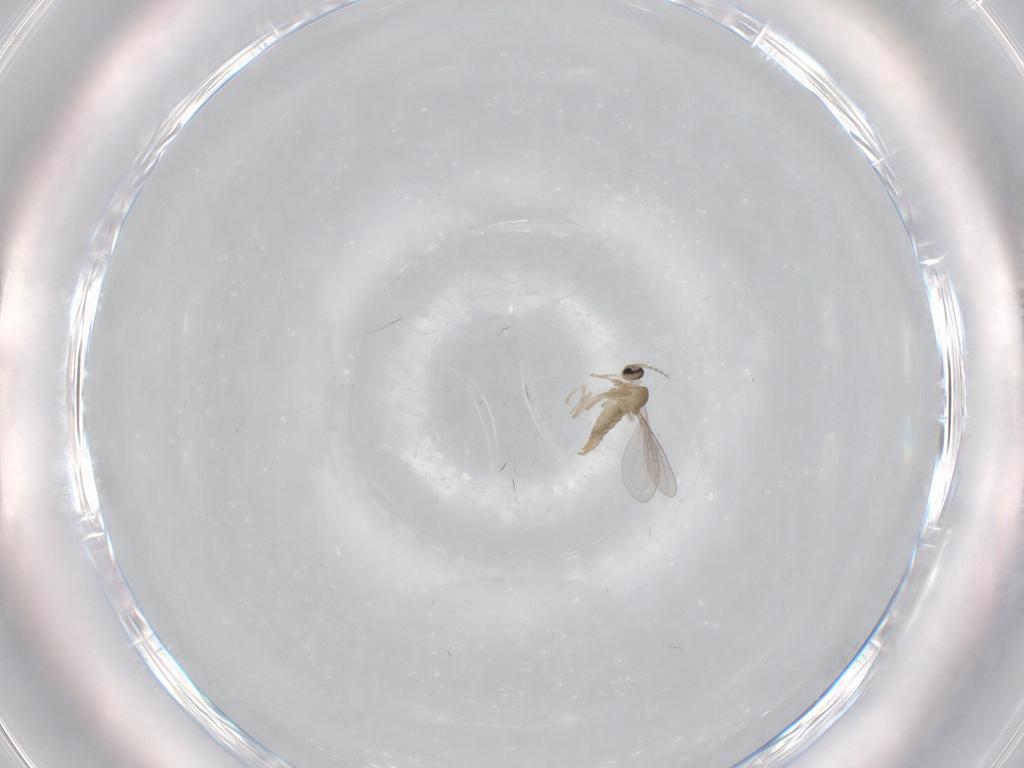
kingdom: Animalia
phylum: Arthropoda
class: Insecta
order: Diptera
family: Cecidomyiidae
